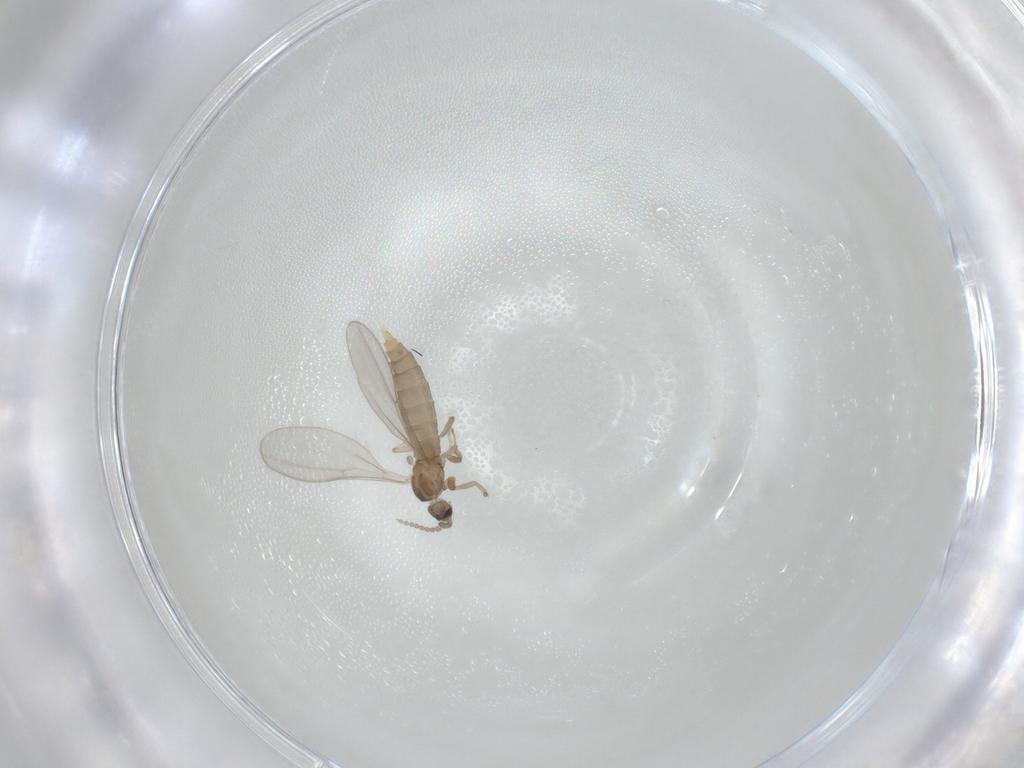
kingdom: Animalia
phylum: Arthropoda
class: Insecta
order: Diptera
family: Cecidomyiidae
